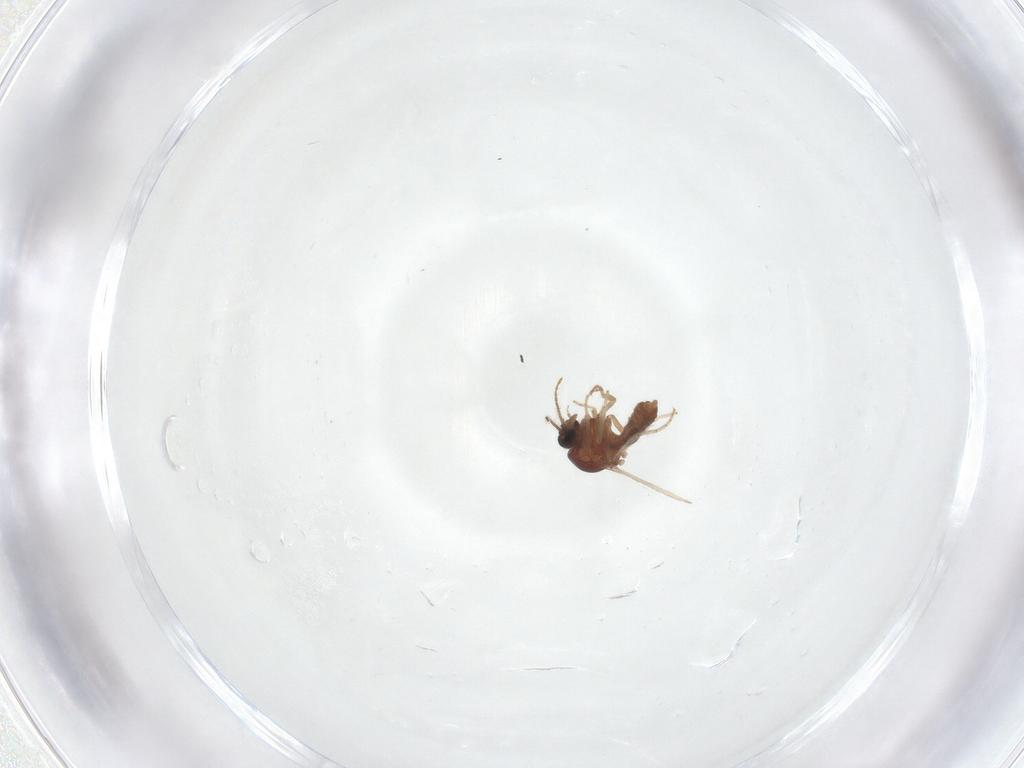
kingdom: Animalia
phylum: Arthropoda
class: Insecta
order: Diptera
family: Ceratopogonidae
